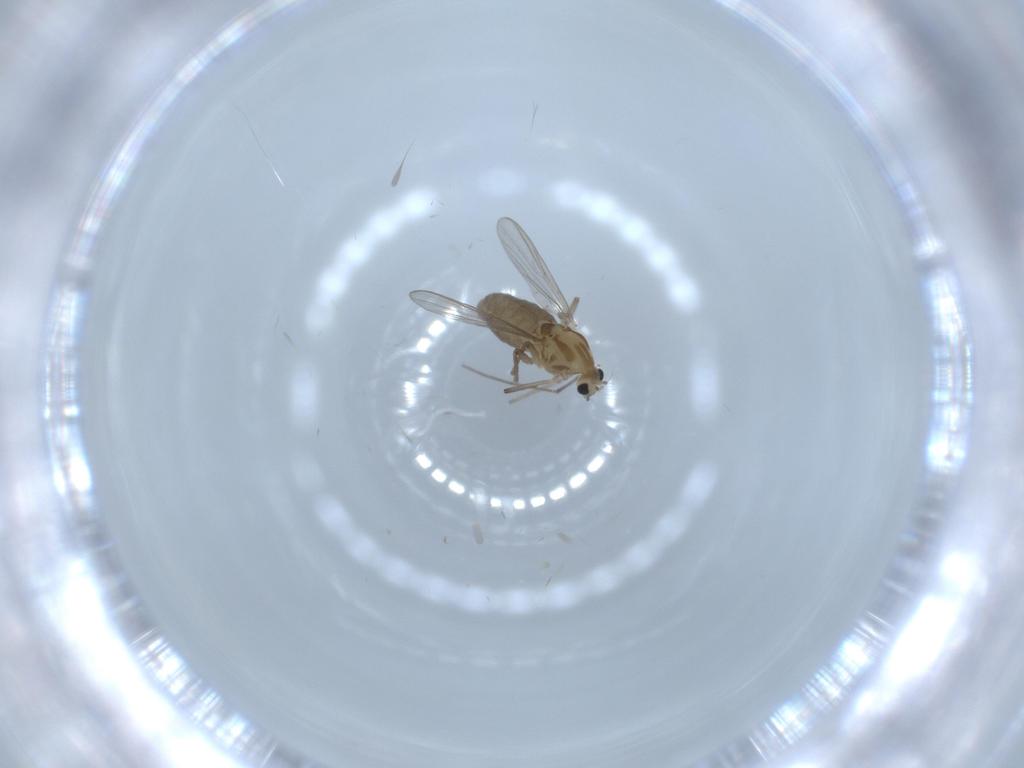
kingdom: Animalia
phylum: Arthropoda
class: Insecta
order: Diptera
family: Chironomidae
